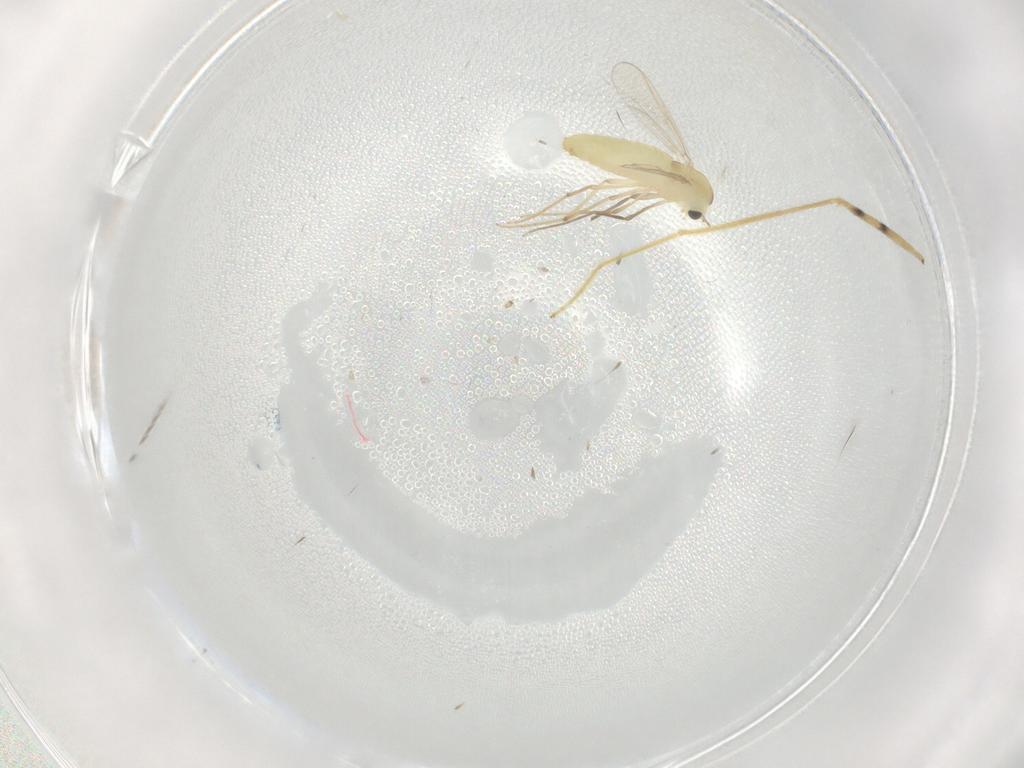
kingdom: Animalia
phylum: Arthropoda
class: Insecta
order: Diptera
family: Chironomidae
